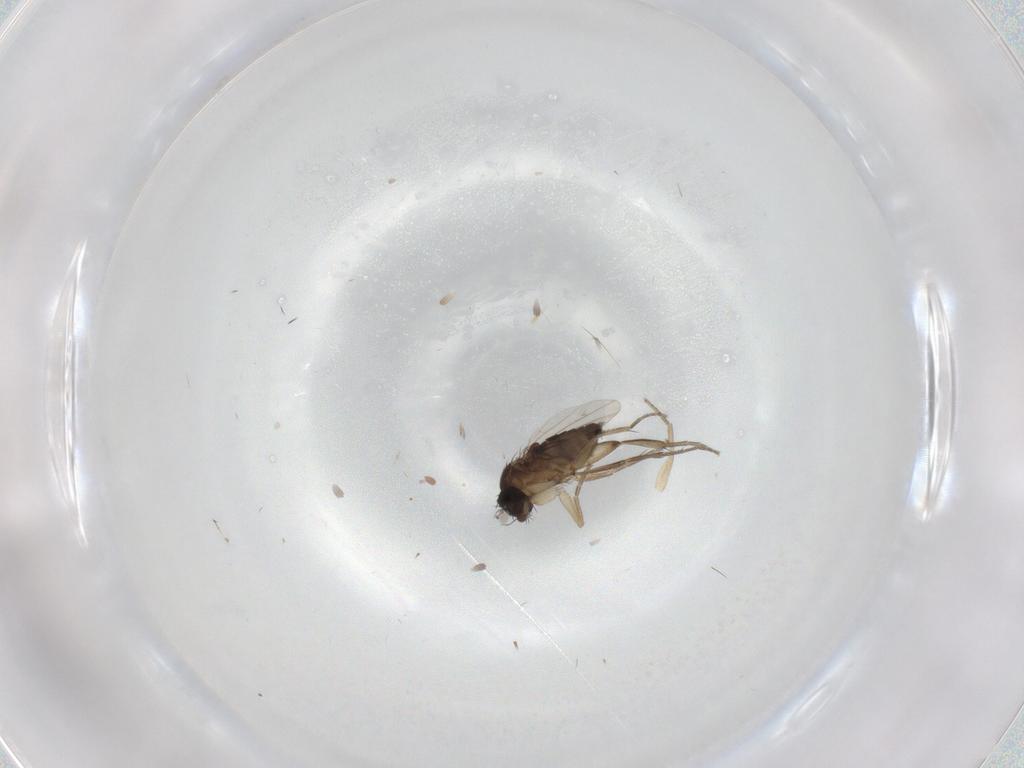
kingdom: Animalia
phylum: Arthropoda
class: Insecta
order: Diptera
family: Phoridae
